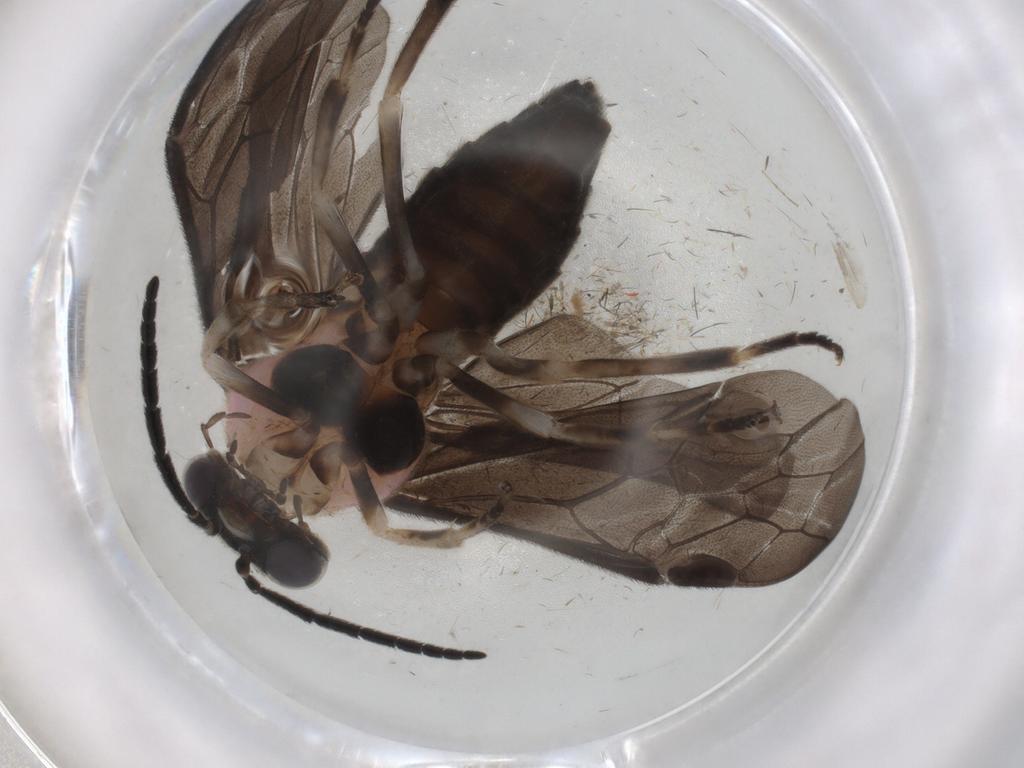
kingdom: Animalia
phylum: Arthropoda
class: Insecta
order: Hymenoptera
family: Tenthredinidae
